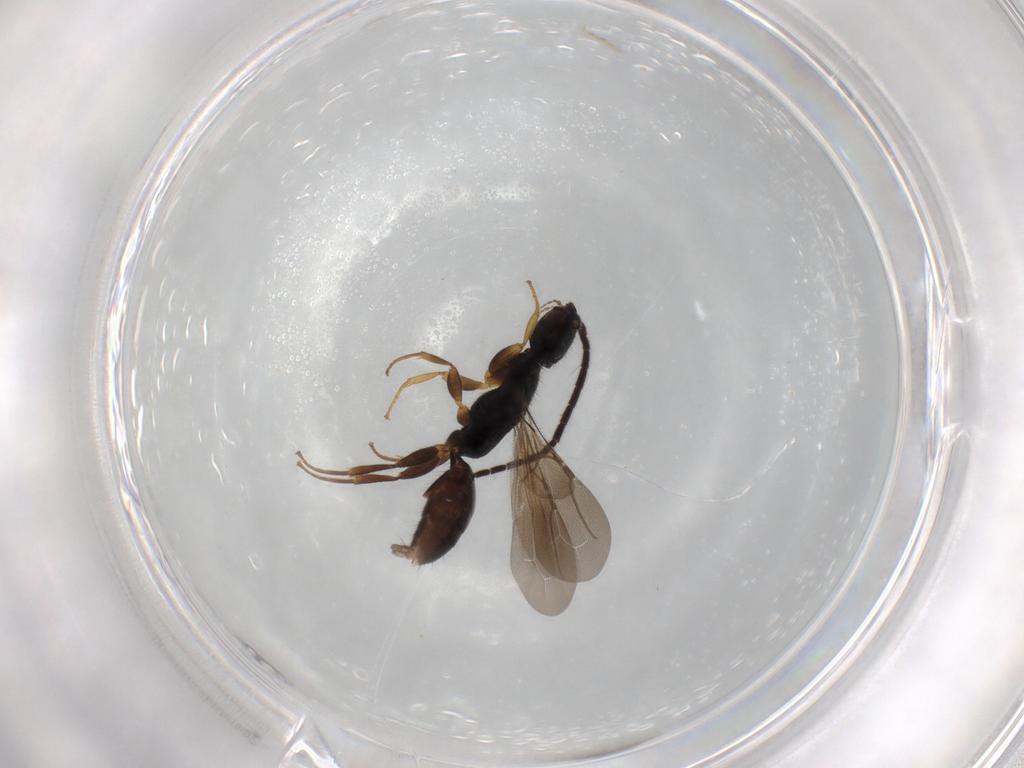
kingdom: Animalia
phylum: Arthropoda
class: Insecta
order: Hymenoptera
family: Bethylidae
